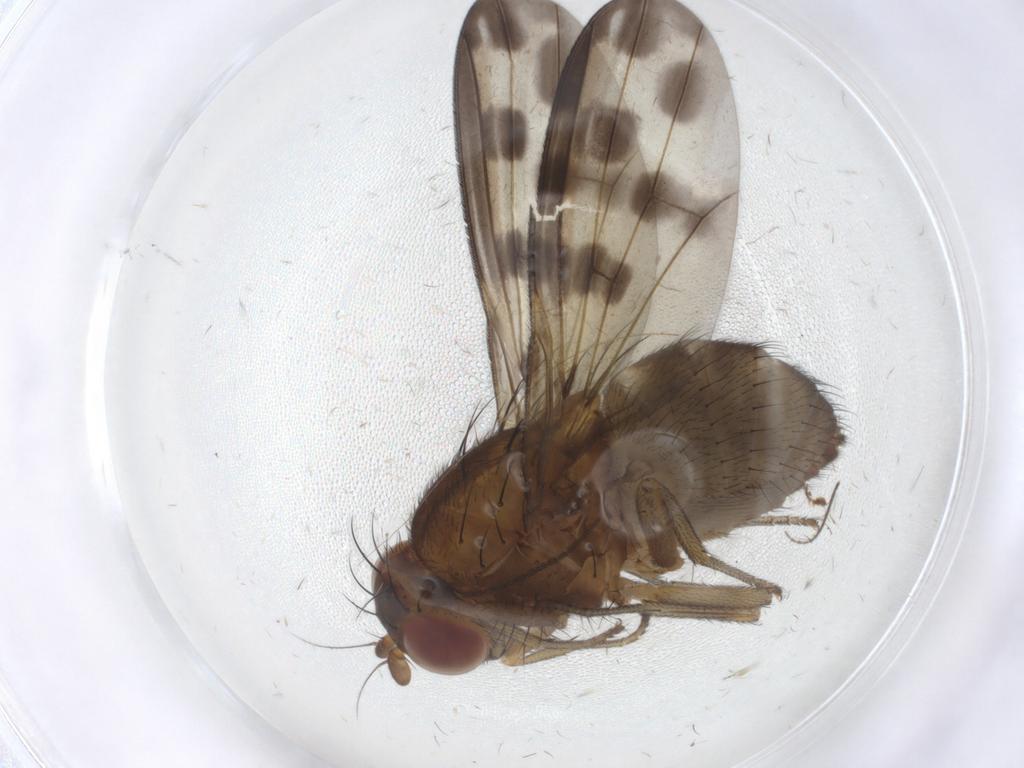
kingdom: Animalia
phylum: Arthropoda
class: Insecta
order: Diptera
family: Sciaridae
